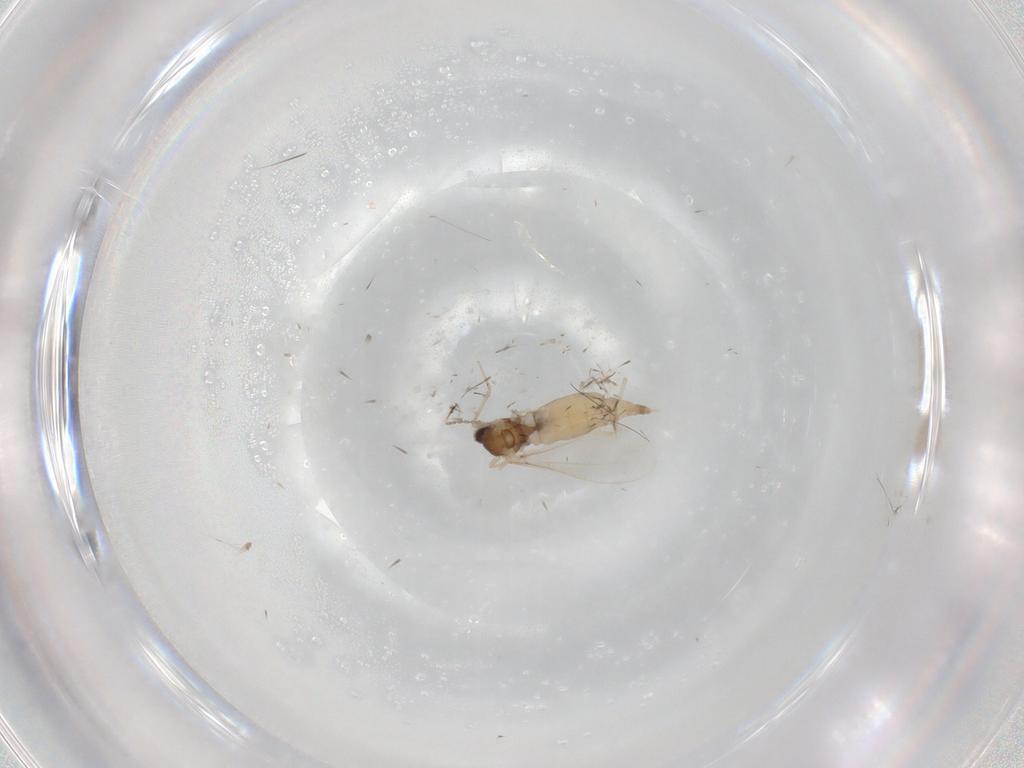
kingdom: Animalia
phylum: Arthropoda
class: Insecta
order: Diptera
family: Cecidomyiidae
